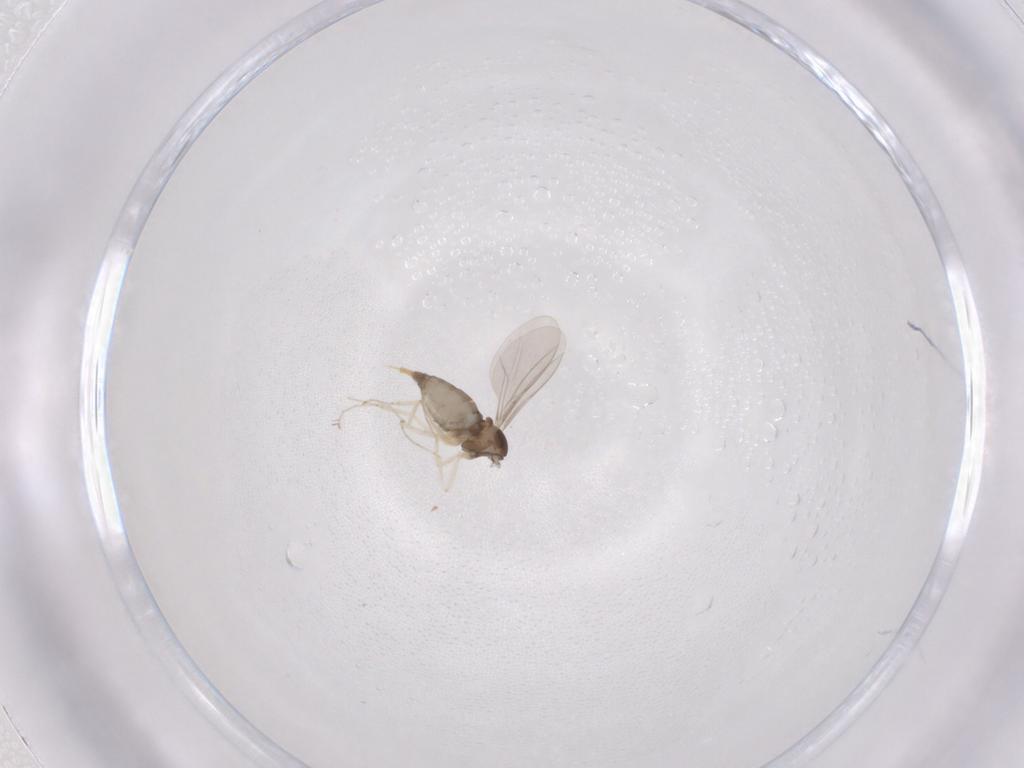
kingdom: Animalia
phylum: Arthropoda
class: Insecta
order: Diptera
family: Cecidomyiidae
